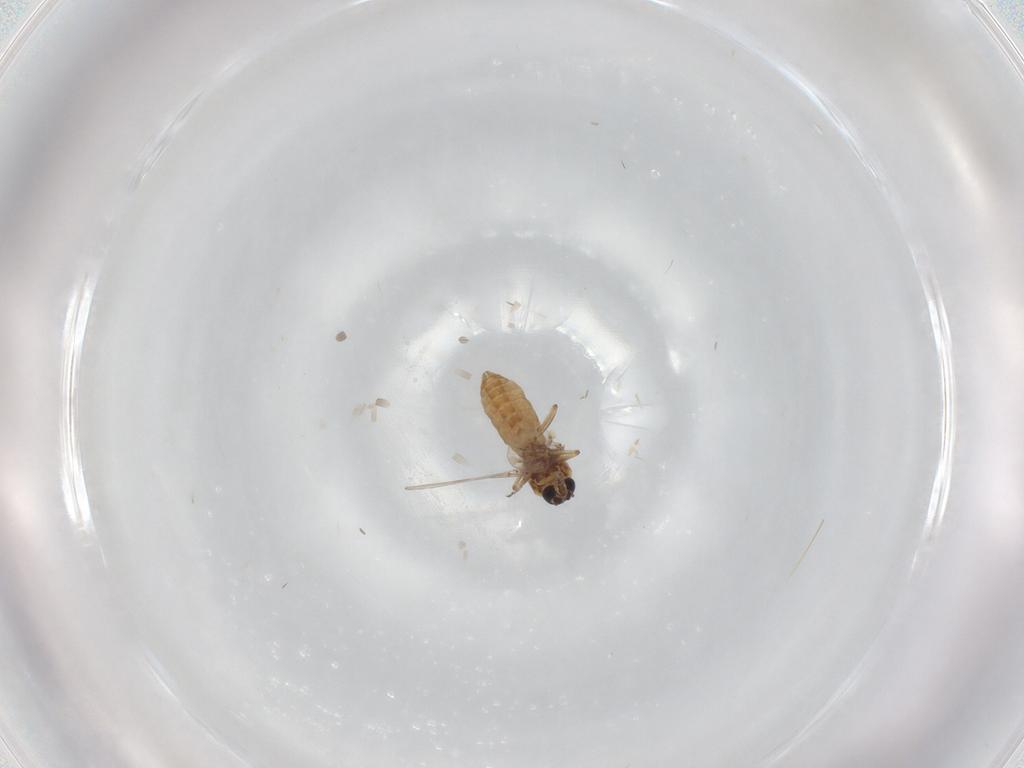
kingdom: Animalia
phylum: Arthropoda
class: Insecta
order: Diptera
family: Ceratopogonidae
